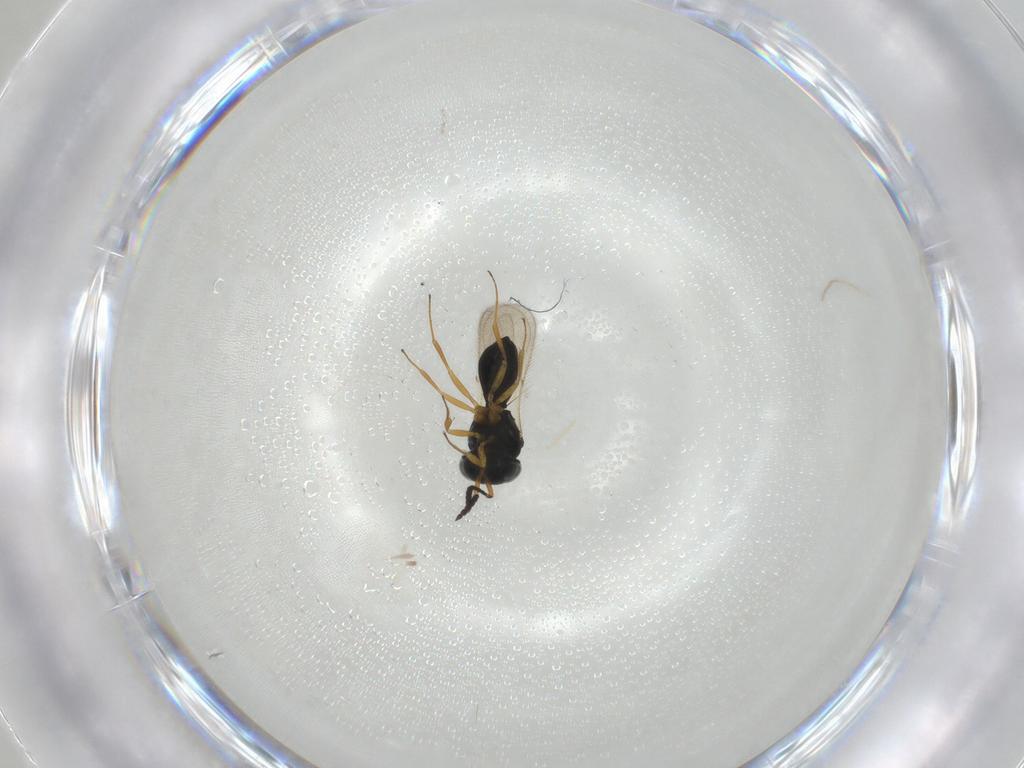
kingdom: Animalia
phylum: Arthropoda
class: Insecta
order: Hymenoptera
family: Scelionidae
